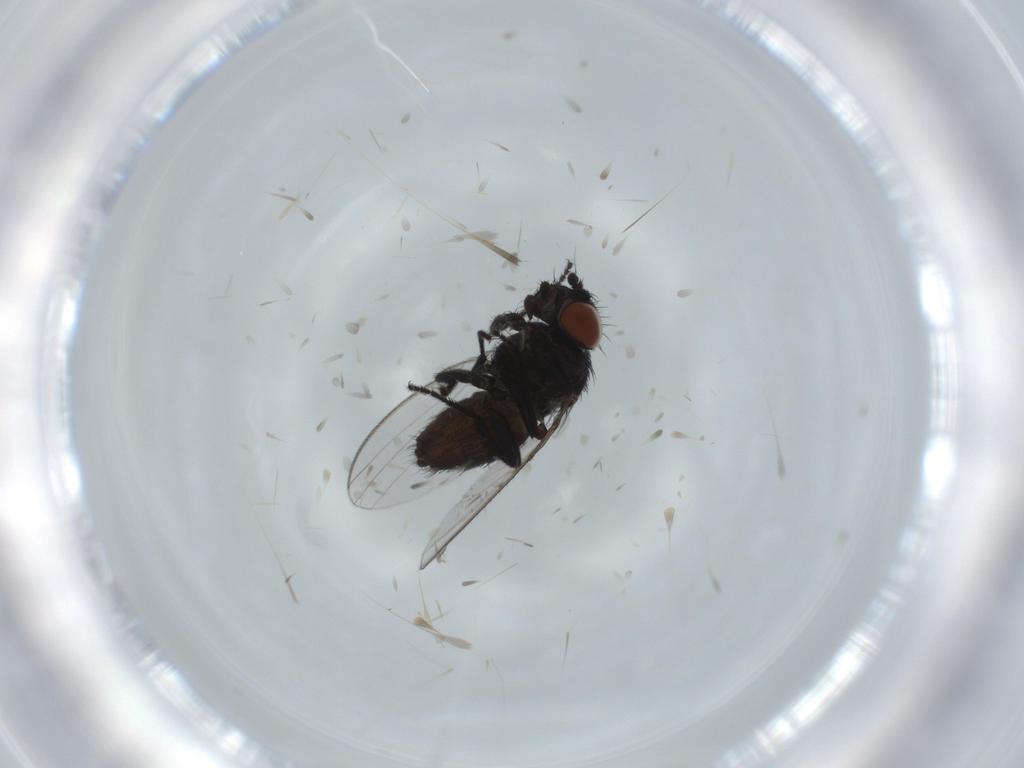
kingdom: Animalia
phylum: Arthropoda
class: Insecta
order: Diptera
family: Milichiidae
